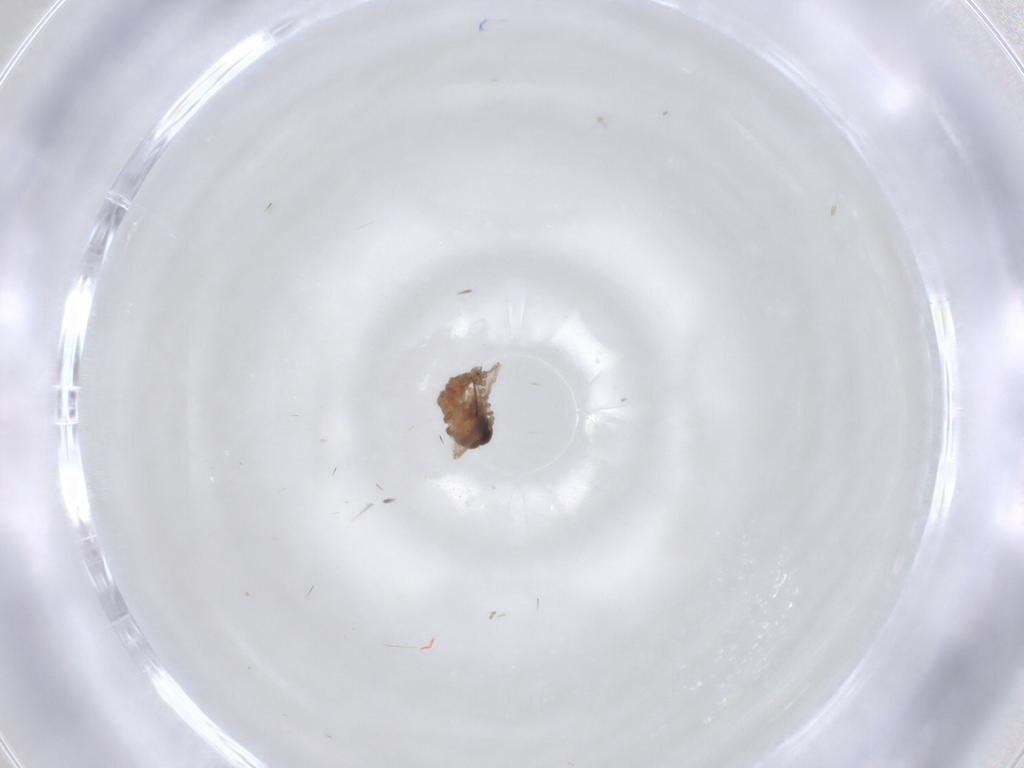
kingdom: Animalia
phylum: Arthropoda
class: Insecta
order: Diptera
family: Psychodidae
